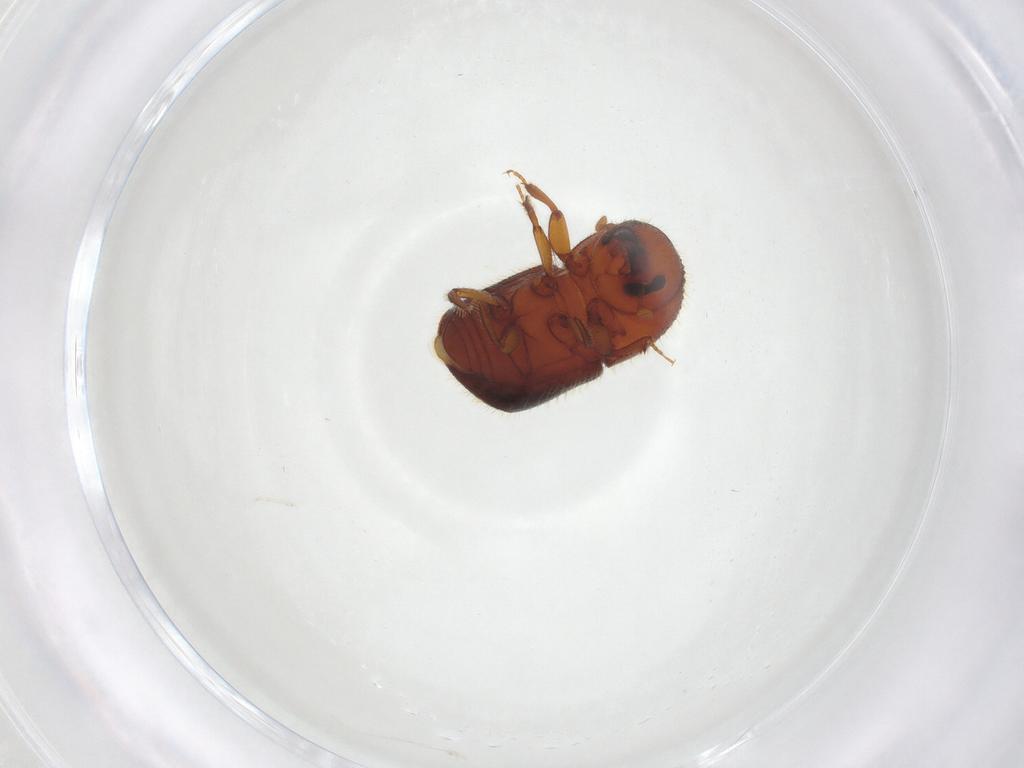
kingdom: Animalia
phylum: Arthropoda
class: Insecta
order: Coleoptera
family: Curculionidae
